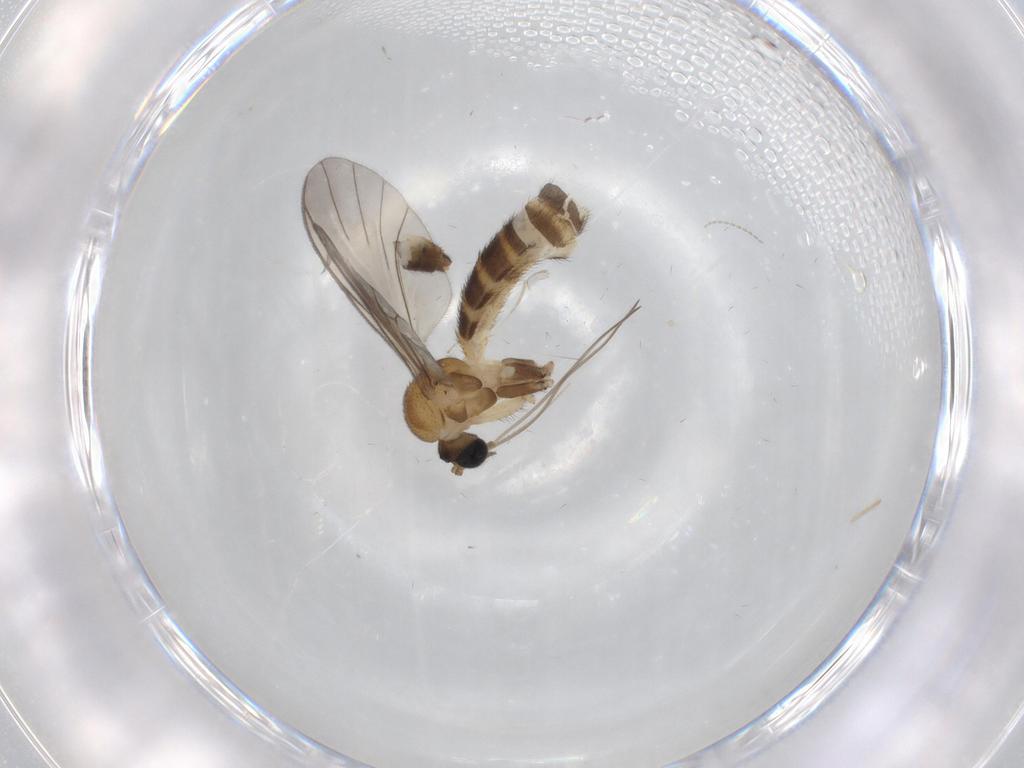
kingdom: Animalia
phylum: Arthropoda
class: Insecta
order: Diptera
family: Keroplatidae
